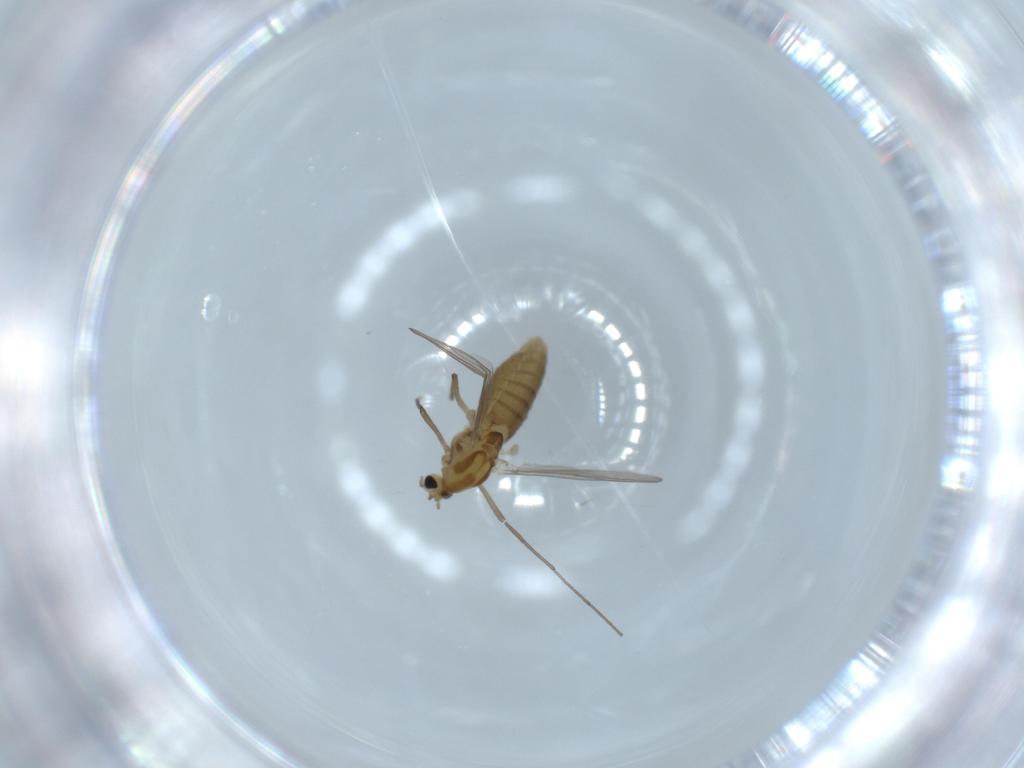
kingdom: Animalia
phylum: Arthropoda
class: Insecta
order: Diptera
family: Chironomidae
